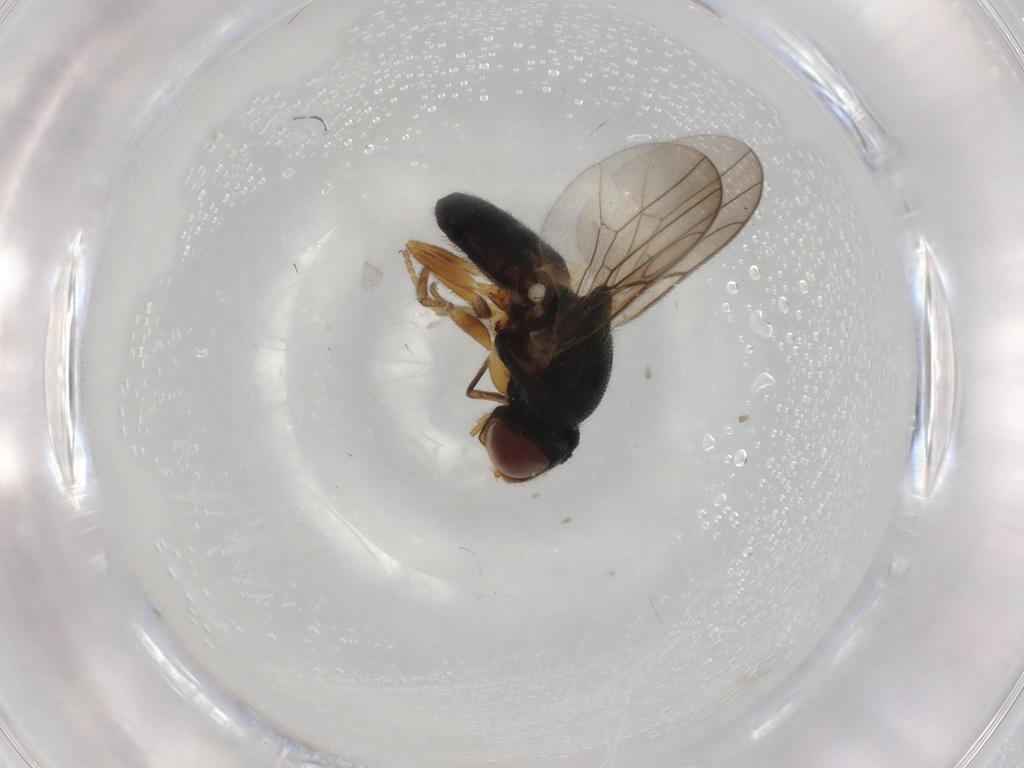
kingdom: Animalia
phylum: Arthropoda
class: Insecta
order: Diptera
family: Chloropidae
